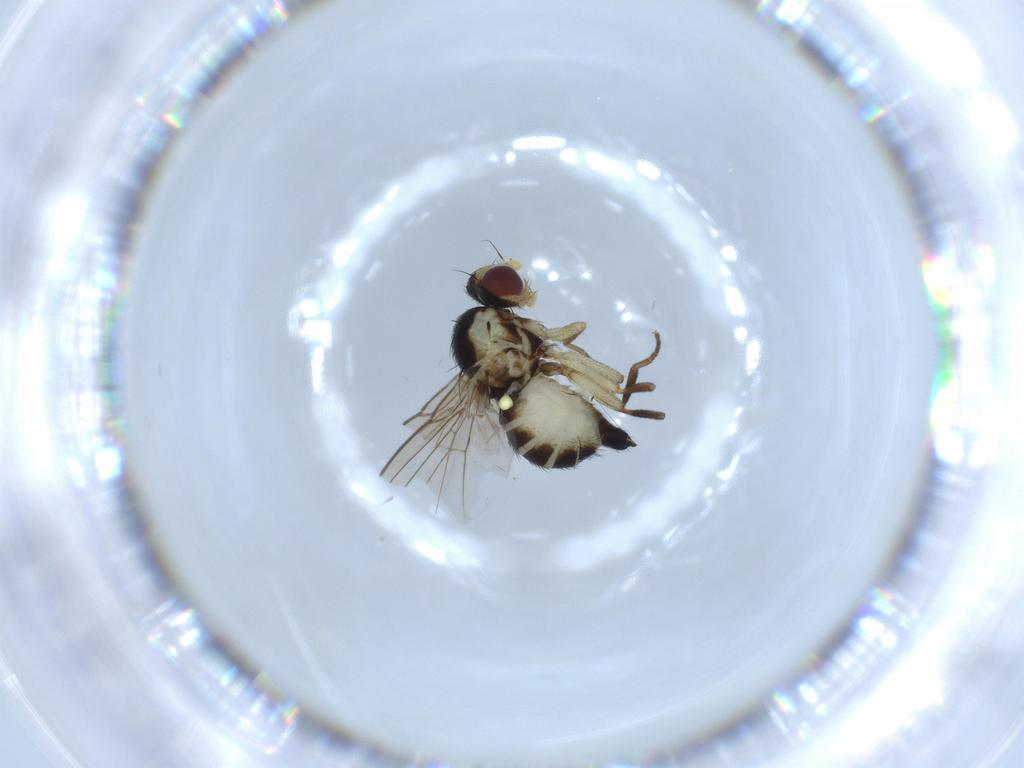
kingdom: Animalia
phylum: Arthropoda
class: Insecta
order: Diptera
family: Agromyzidae
